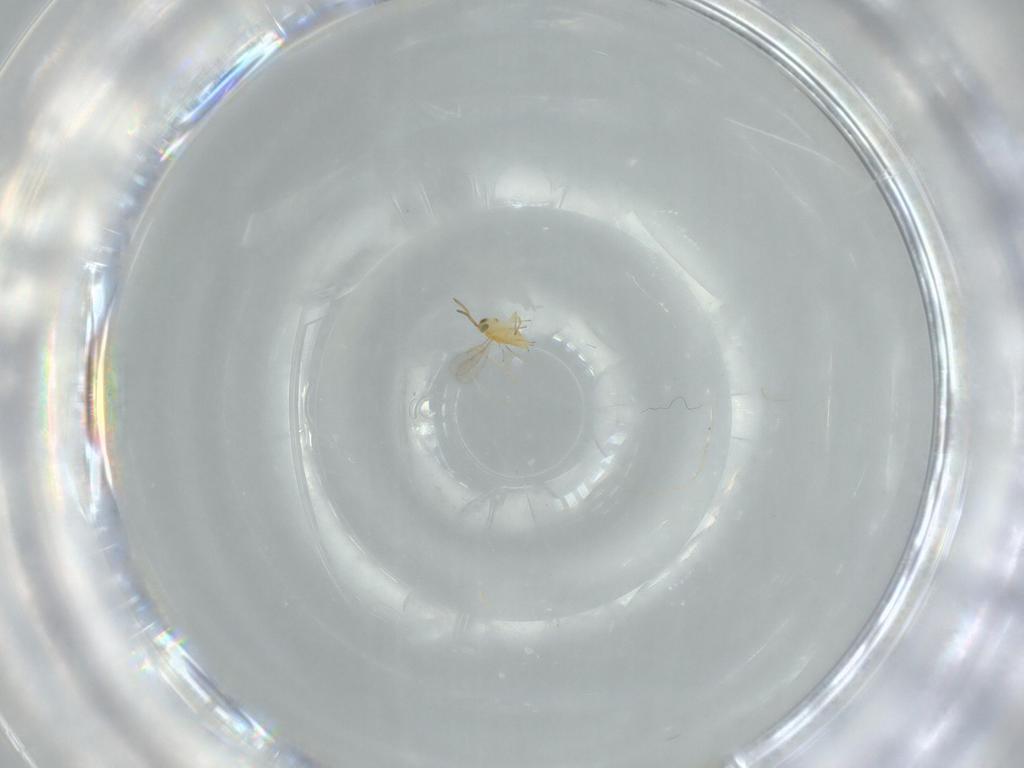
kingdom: Animalia
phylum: Arthropoda
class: Insecta
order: Hymenoptera
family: Aphelinidae
